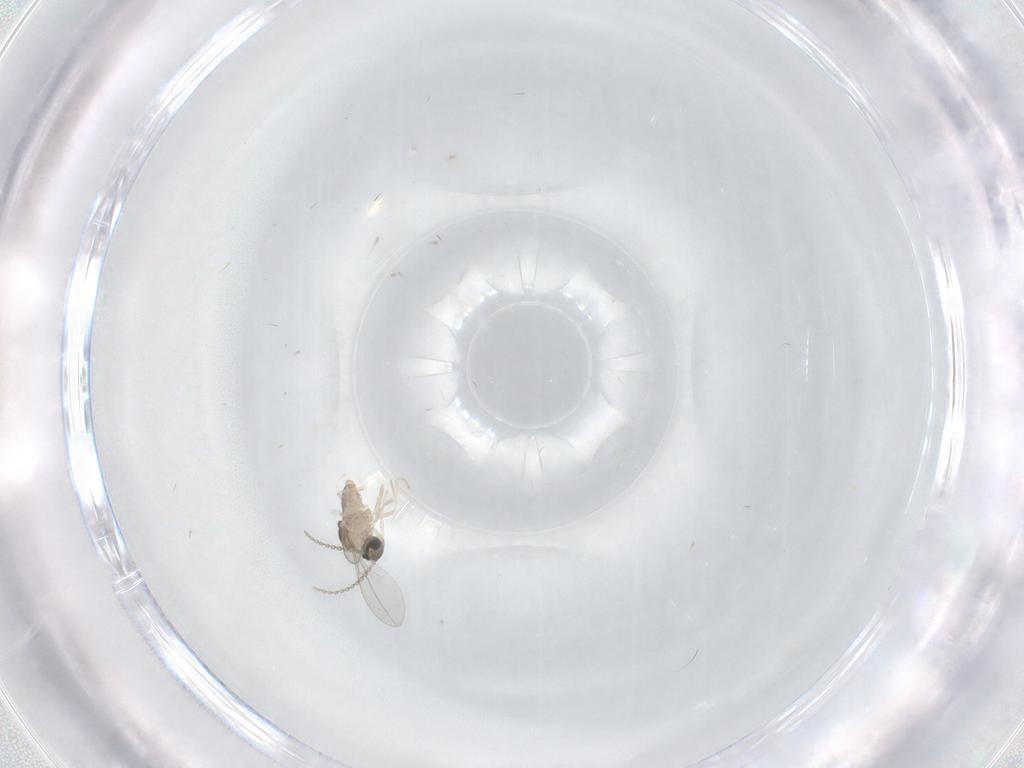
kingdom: Animalia
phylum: Arthropoda
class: Insecta
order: Diptera
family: Cecidomyiidae
